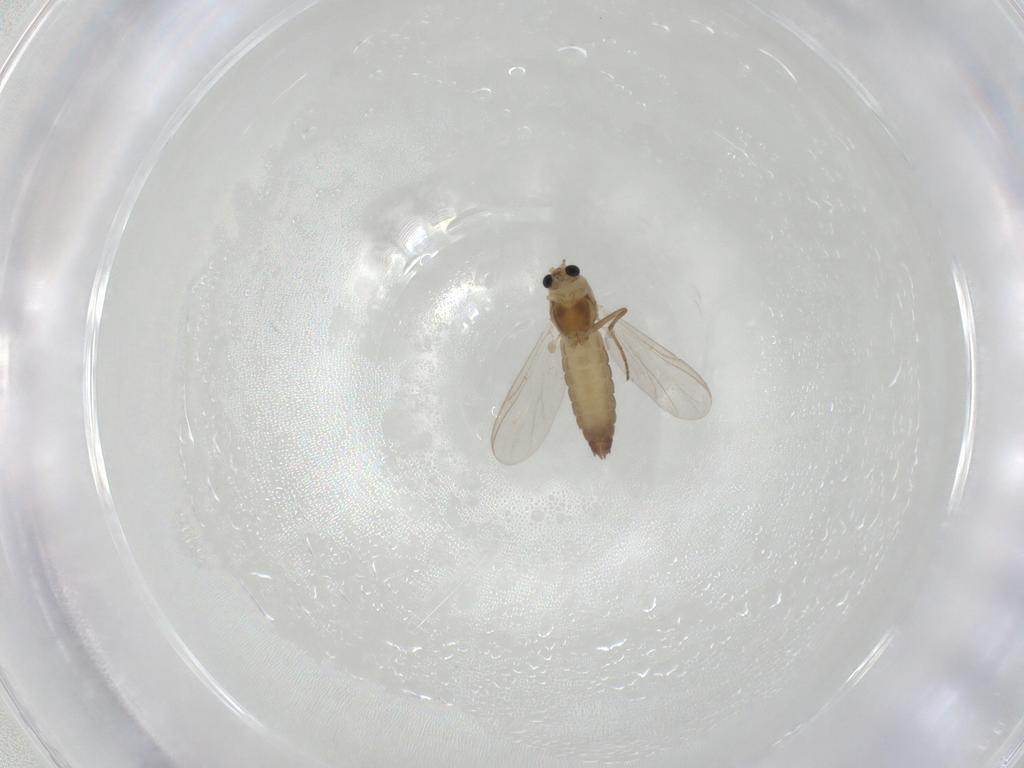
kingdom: Animalia
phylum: Arthropoda
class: Insecta
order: Diptera
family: Chironomidae
